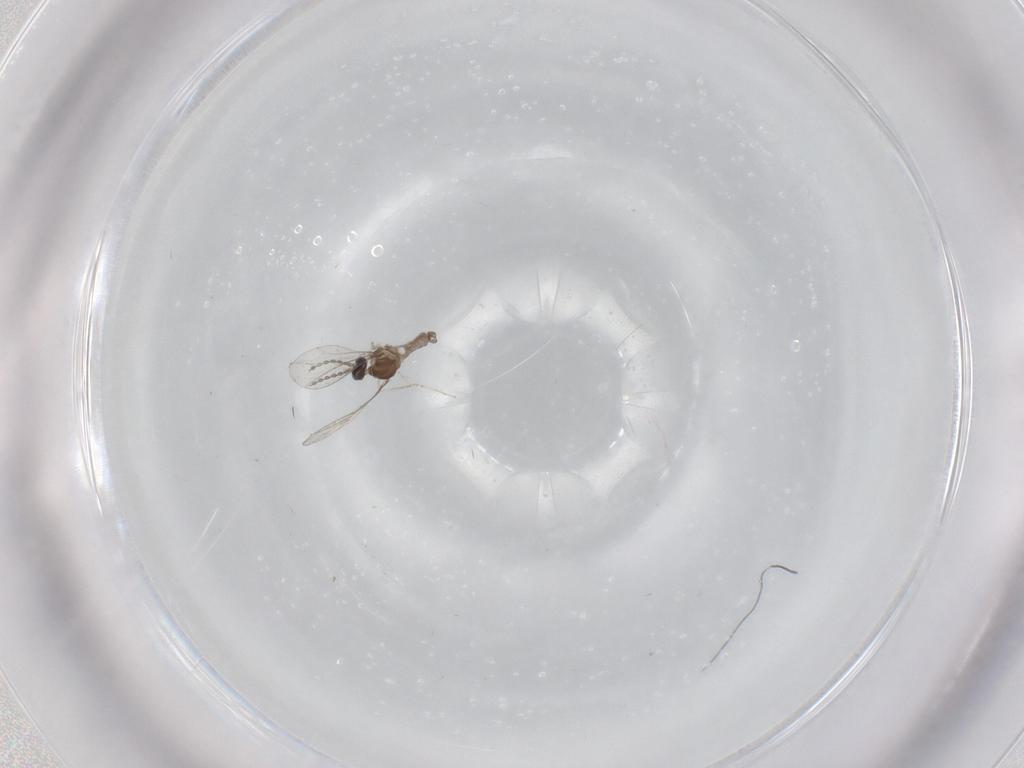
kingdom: Animalia
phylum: Arthropoda
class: Insecta
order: Diptera
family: Cecidomyiidae
